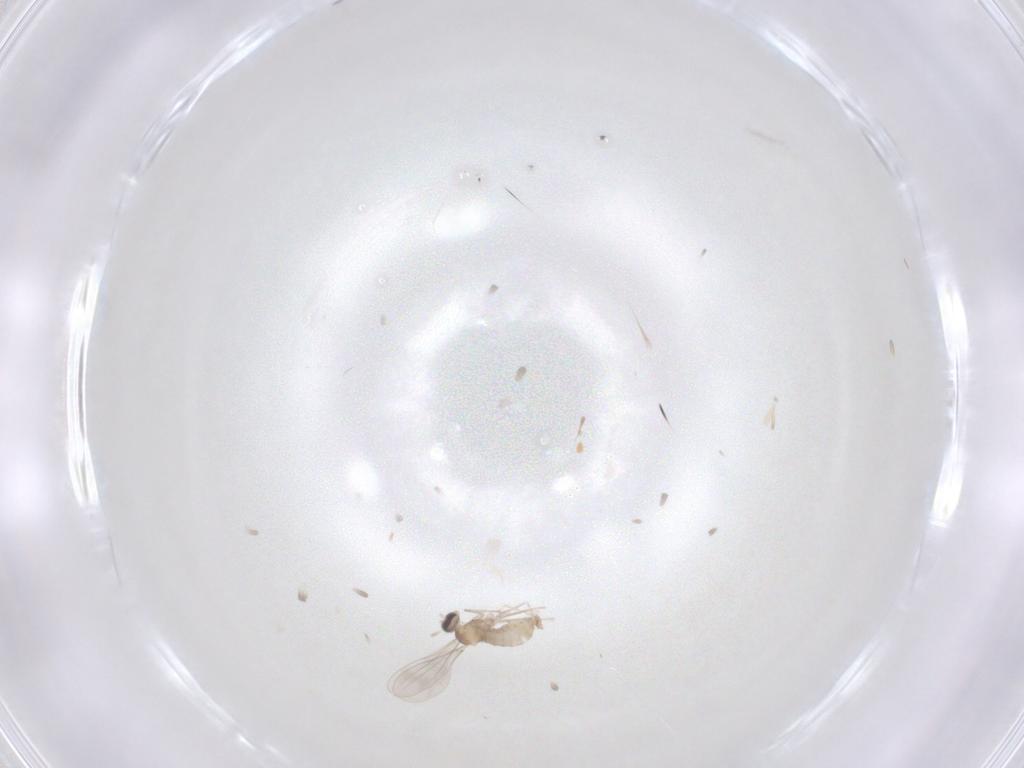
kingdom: Animalia
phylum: Arthropoda
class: Insecta
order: Diptera
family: Cecidomyiidae
